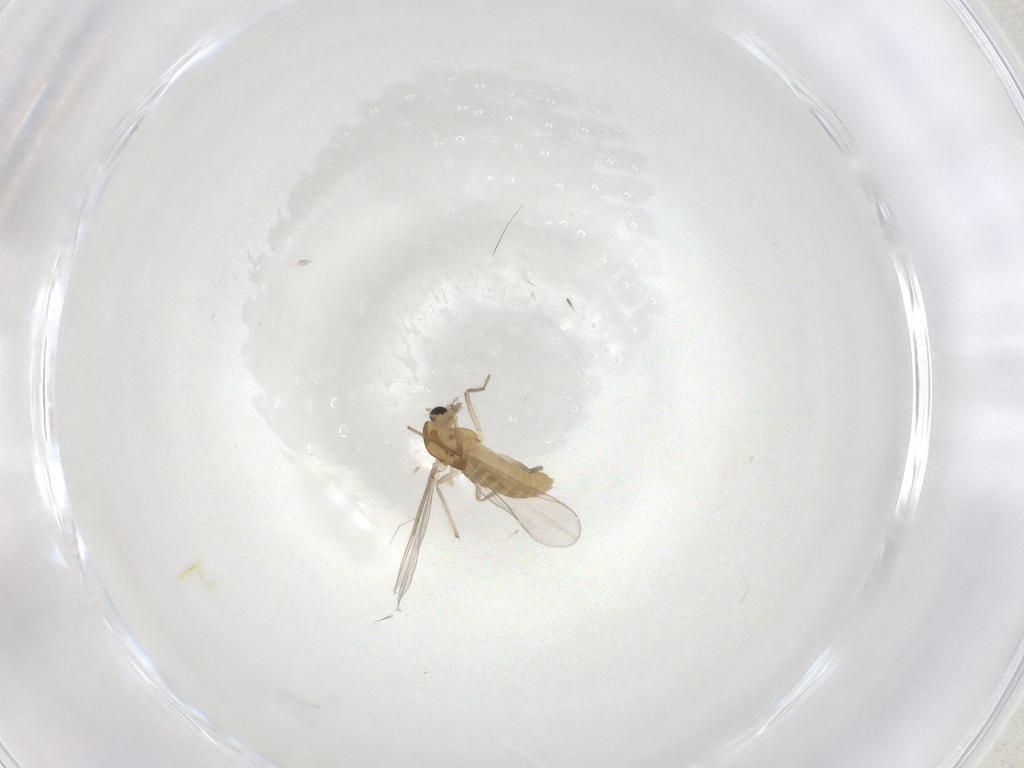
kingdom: Animalia
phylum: Arthropoda
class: Insecta
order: Diptera
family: Chironomidae
